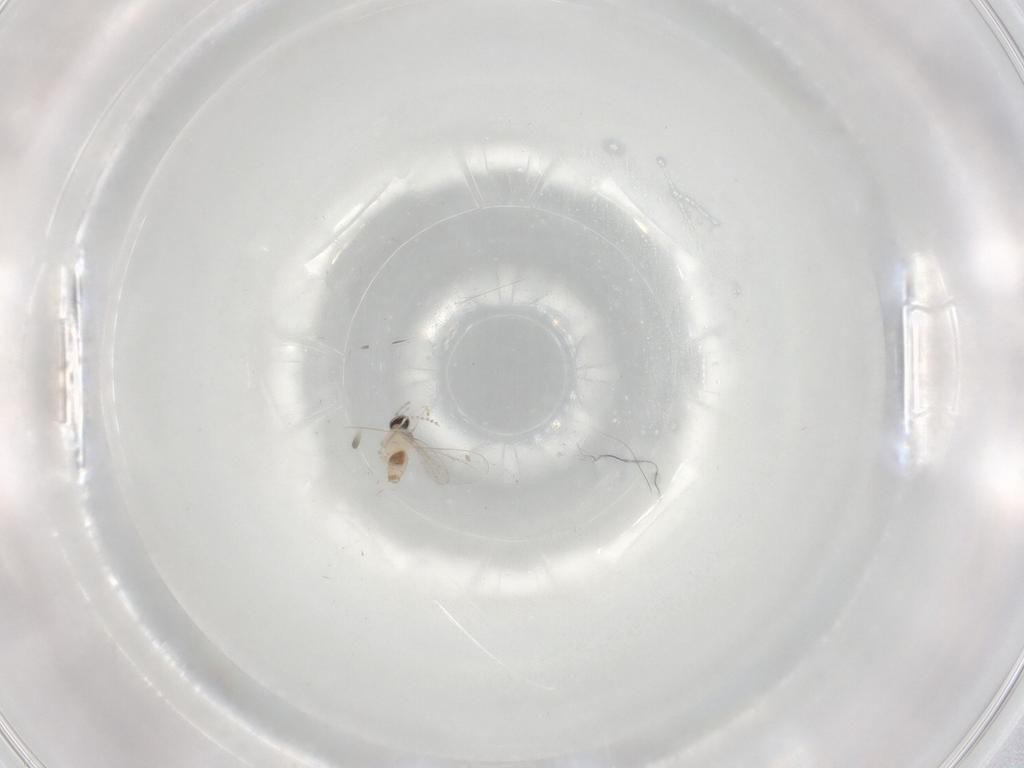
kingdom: Animalia
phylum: Arthropoda
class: Insecta
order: Diptera
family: Cecidomyiidae
